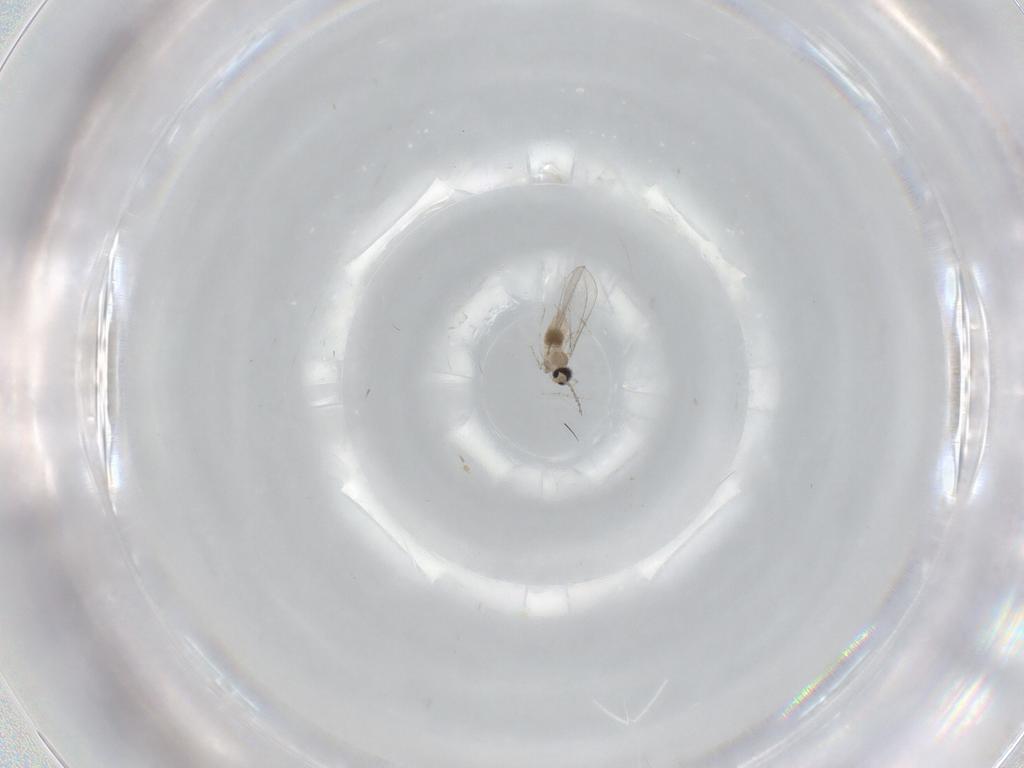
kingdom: Animalia
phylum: Arthropoda
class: Insecta
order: Diptera
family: Cecidomyiidae
